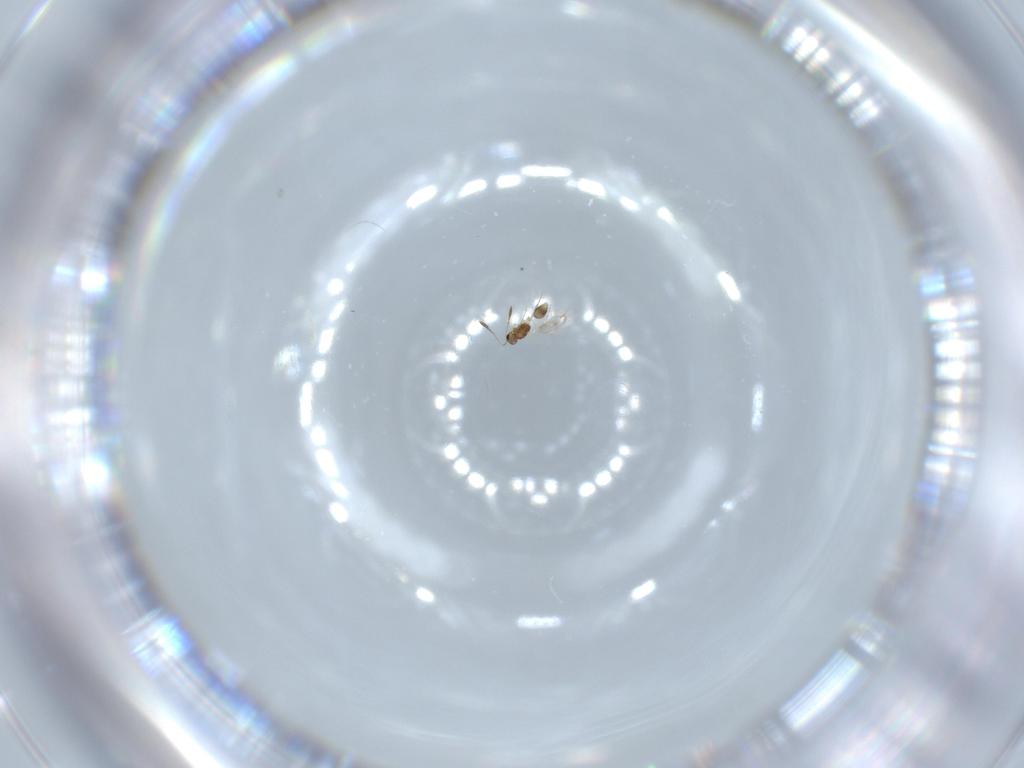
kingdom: Animalia
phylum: Arthropoda
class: Insecta
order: Hymenoptera
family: Mymarommatidae
